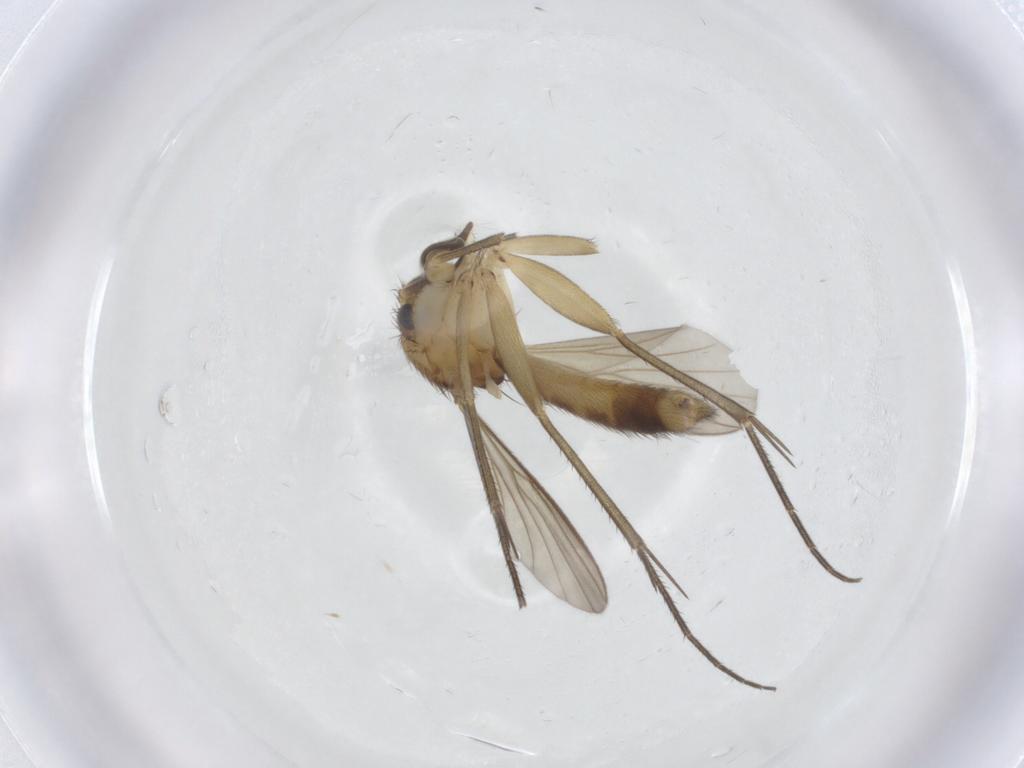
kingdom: Animalia
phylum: Arthropoda
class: Insecta
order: Diptera
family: Mycetophilidae
